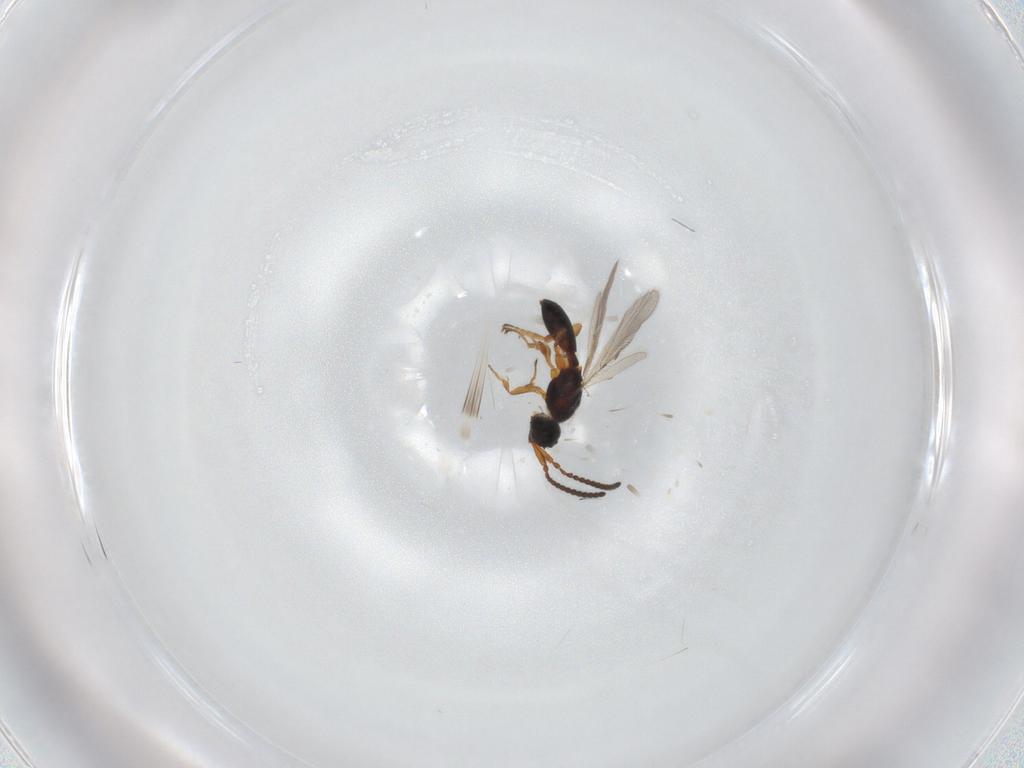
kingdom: Animalia
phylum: Arthropoda
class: Insecta
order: Hymenoptera
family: Diapriidae
